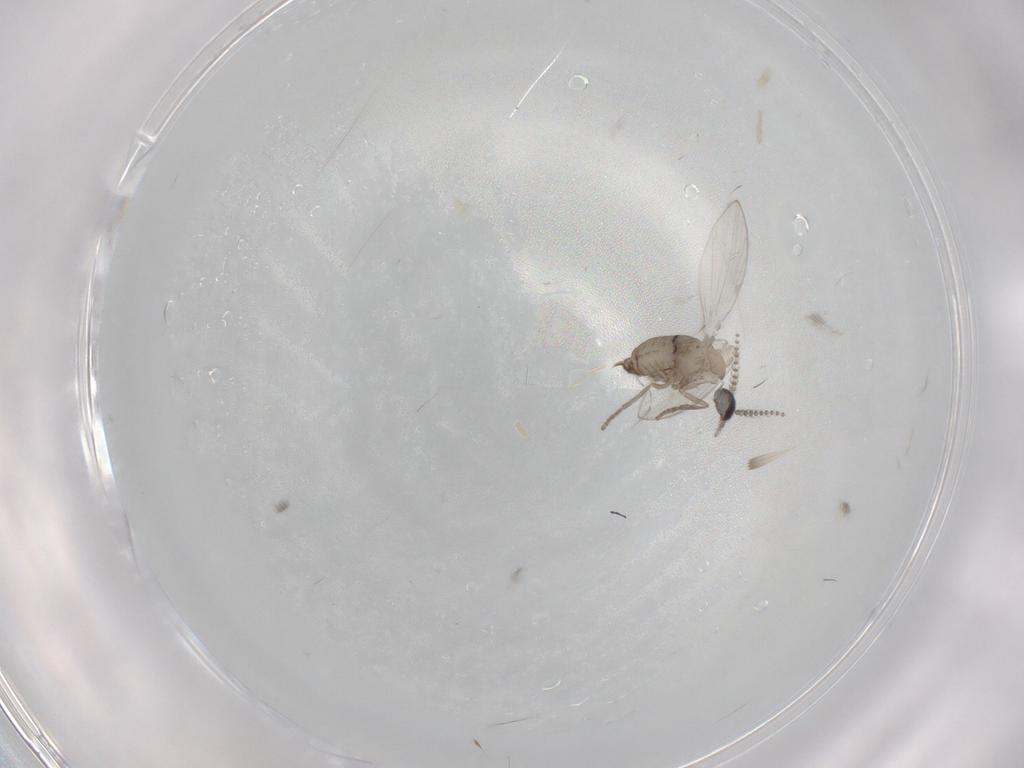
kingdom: Animalia
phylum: Arthropoda
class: Insecta
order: Diptera
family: Psychodidae
